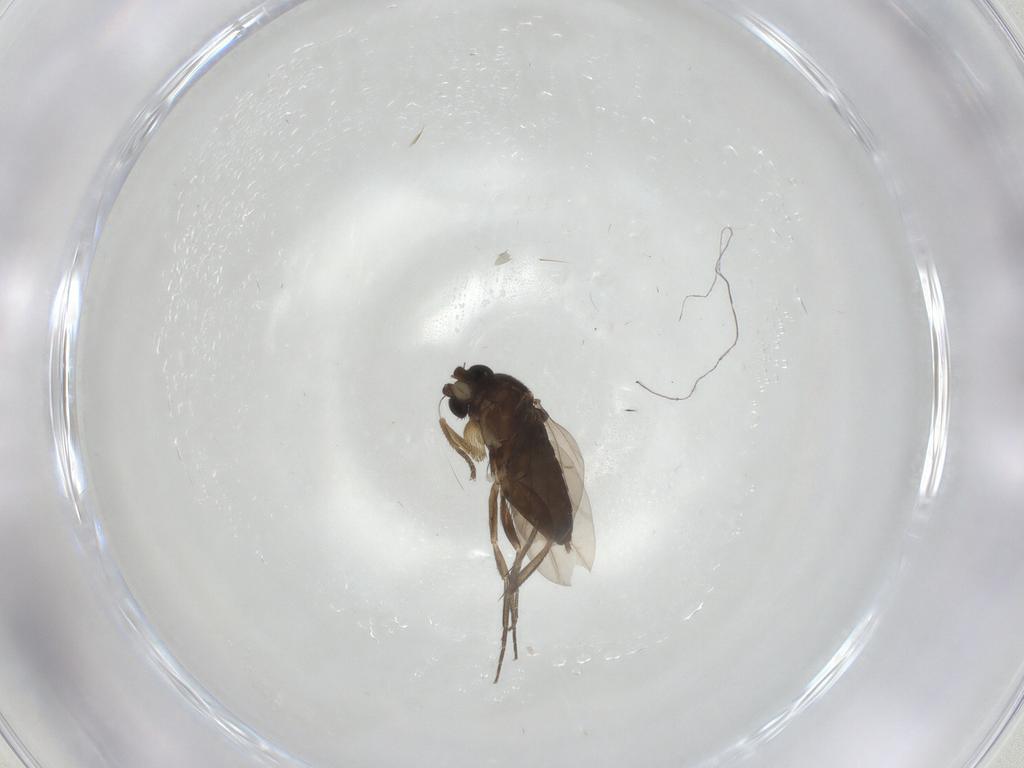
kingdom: Animalia
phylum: Arthropoda
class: Insecta
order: Diptera
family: Phoridae
